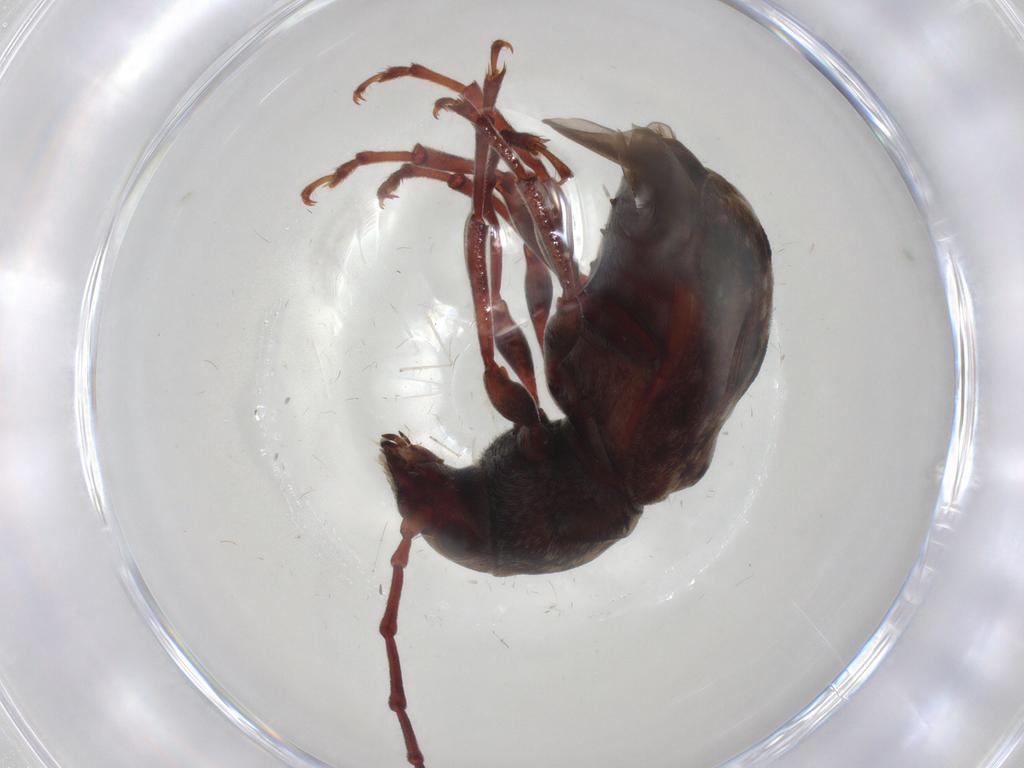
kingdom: Animalia
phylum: Arthropoda
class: Insecta
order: Coleoptera
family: Anthribidae
